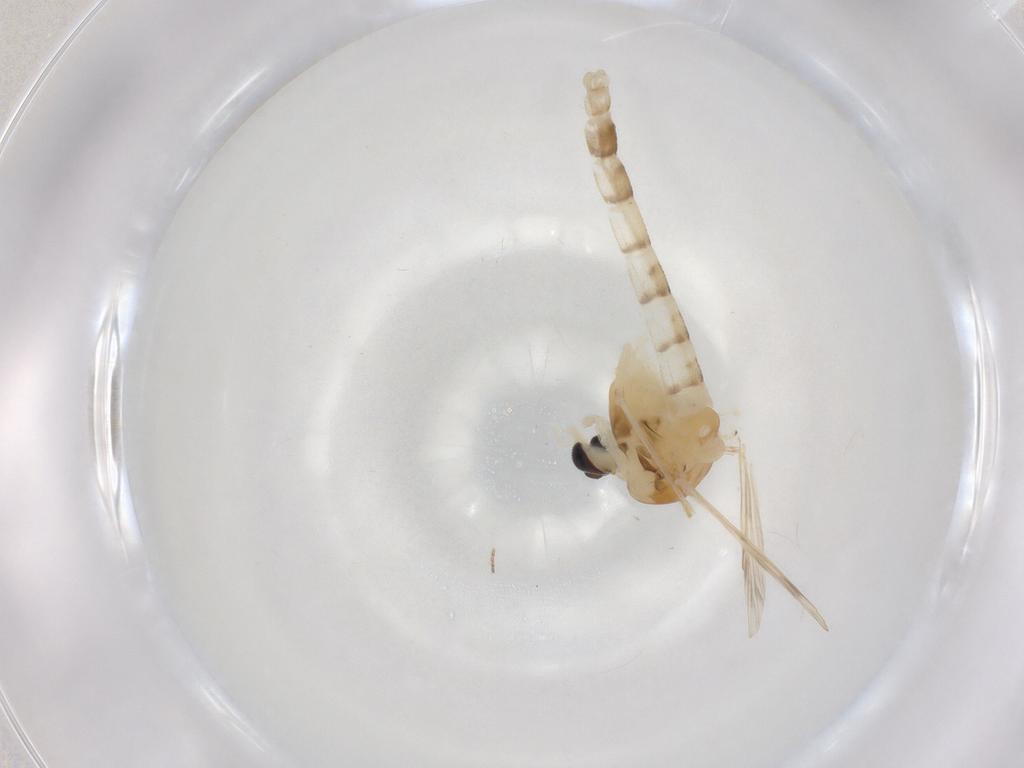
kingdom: Animalia
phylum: Arthropoda
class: Insecta
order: Diptera
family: Chironomidae
